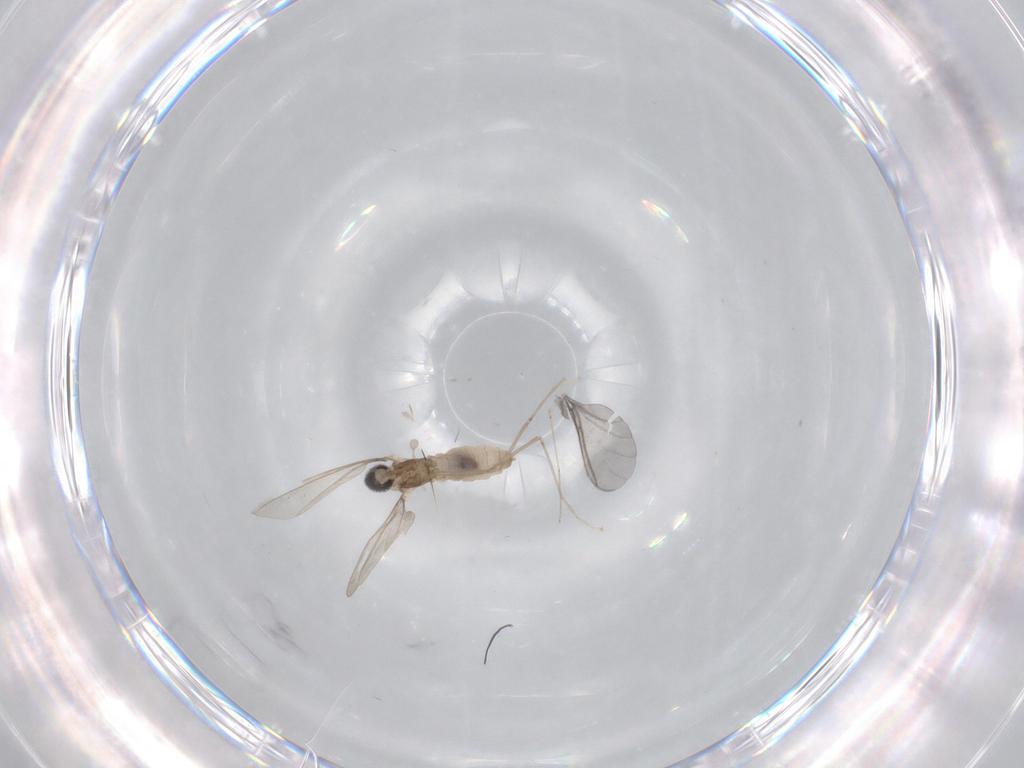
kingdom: Animalia
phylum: Arthropoda
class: Insecta
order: Diptera
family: Cecidomyiidae
